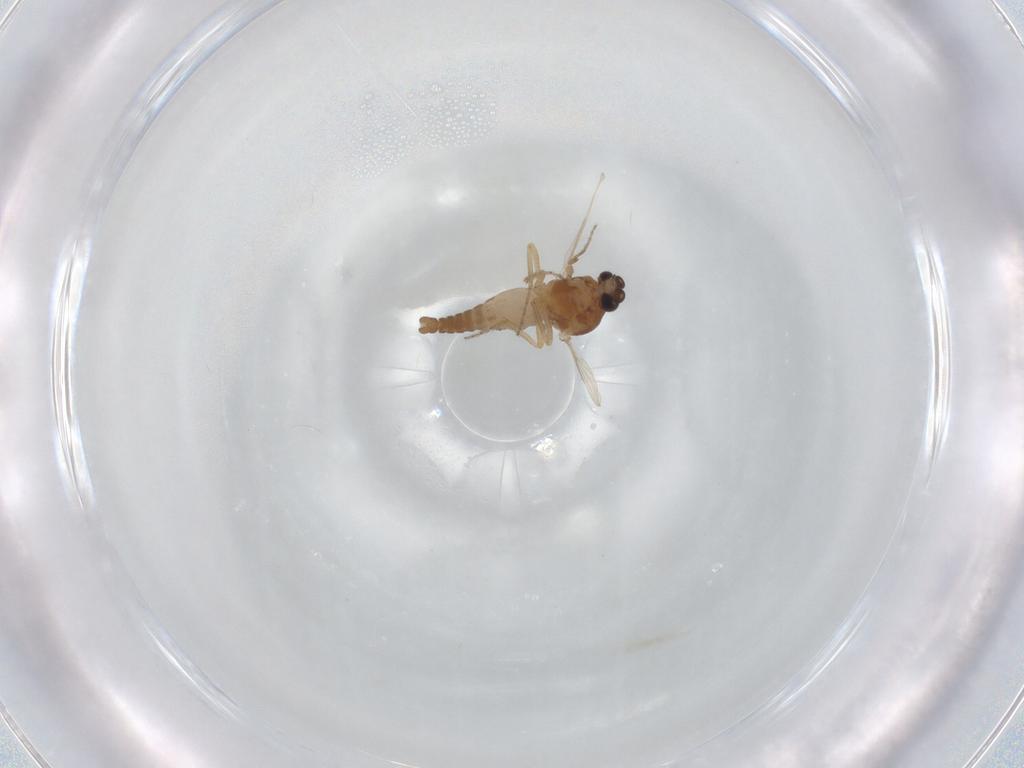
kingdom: Animalia
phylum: Arthropoda
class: Insecta
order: Diptera
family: Ceratopogonidae
